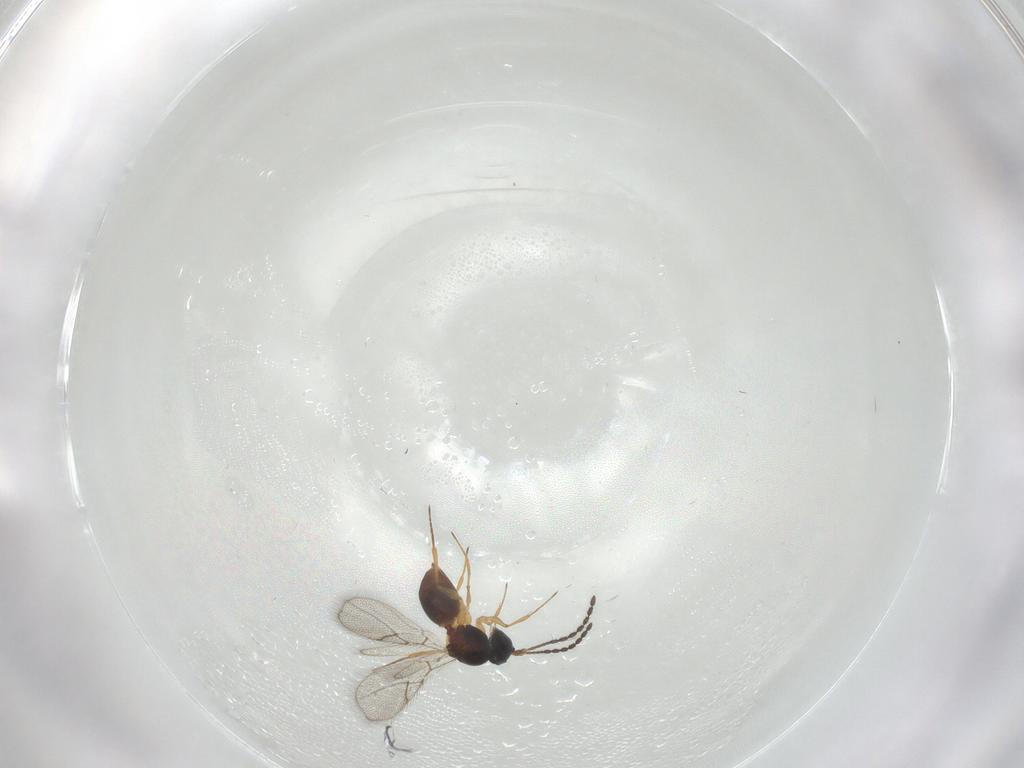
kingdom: Animalia
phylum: Arthropoda
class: Insecta
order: Hymenoptera
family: Figitidae
